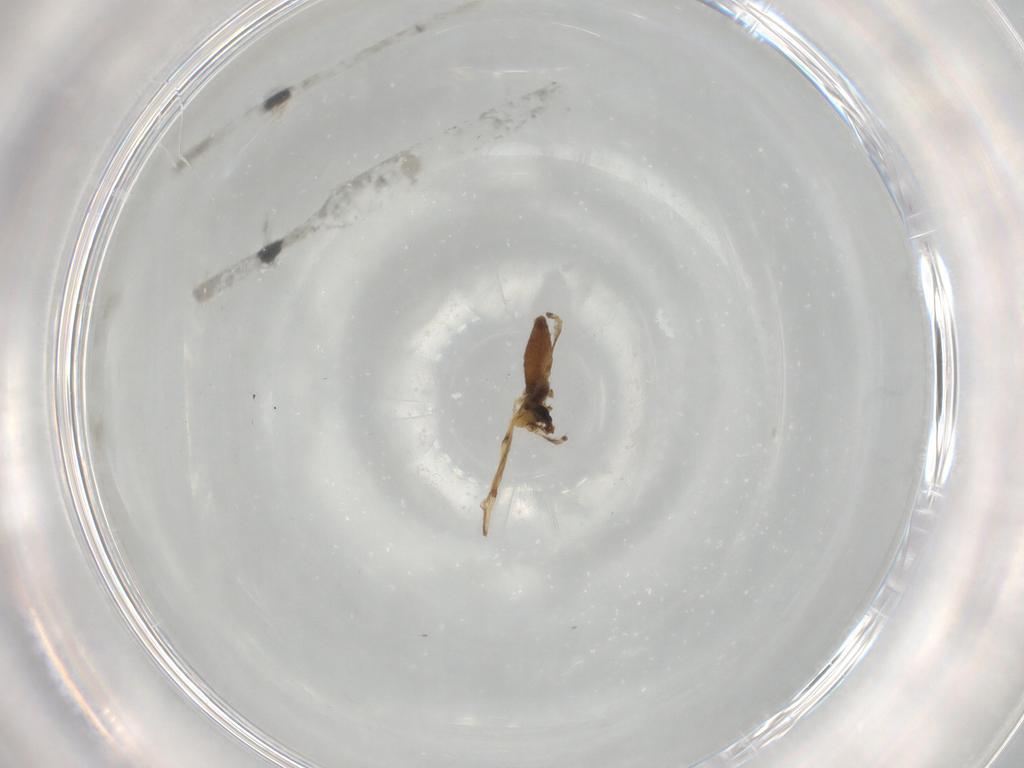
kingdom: Animalia
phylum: Arthropoda
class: Insecta
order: Diptera
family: Chironomidae
